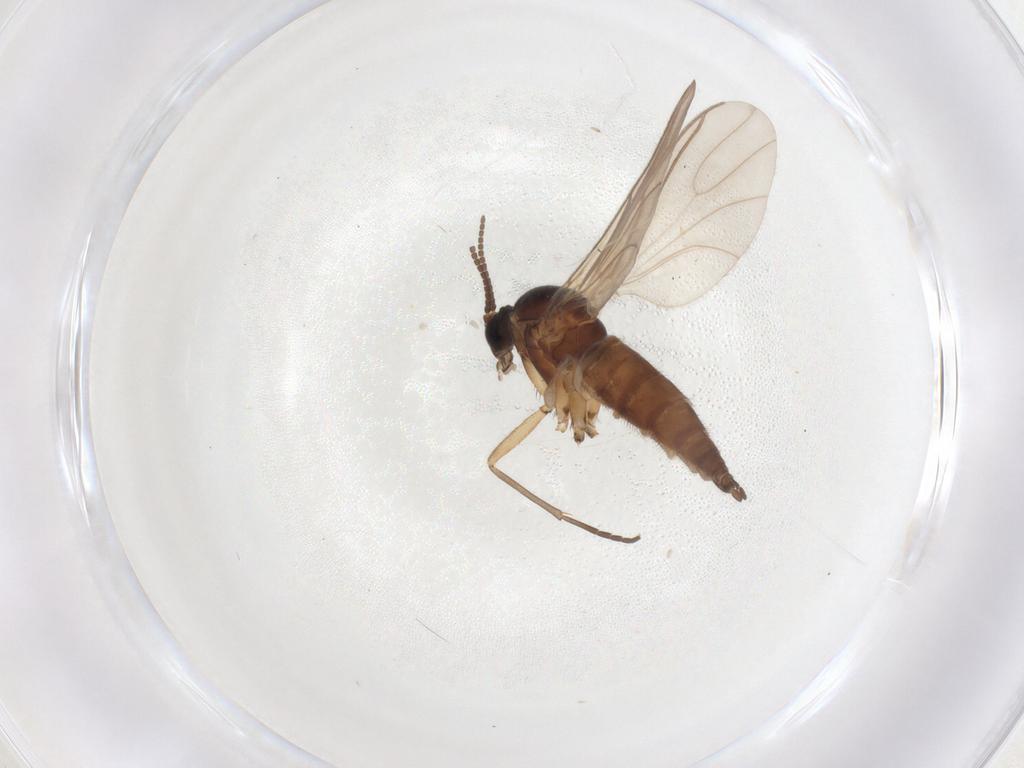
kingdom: Animalia
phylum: Arthropoda
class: Insecta
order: Diptera
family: Sciaridae
